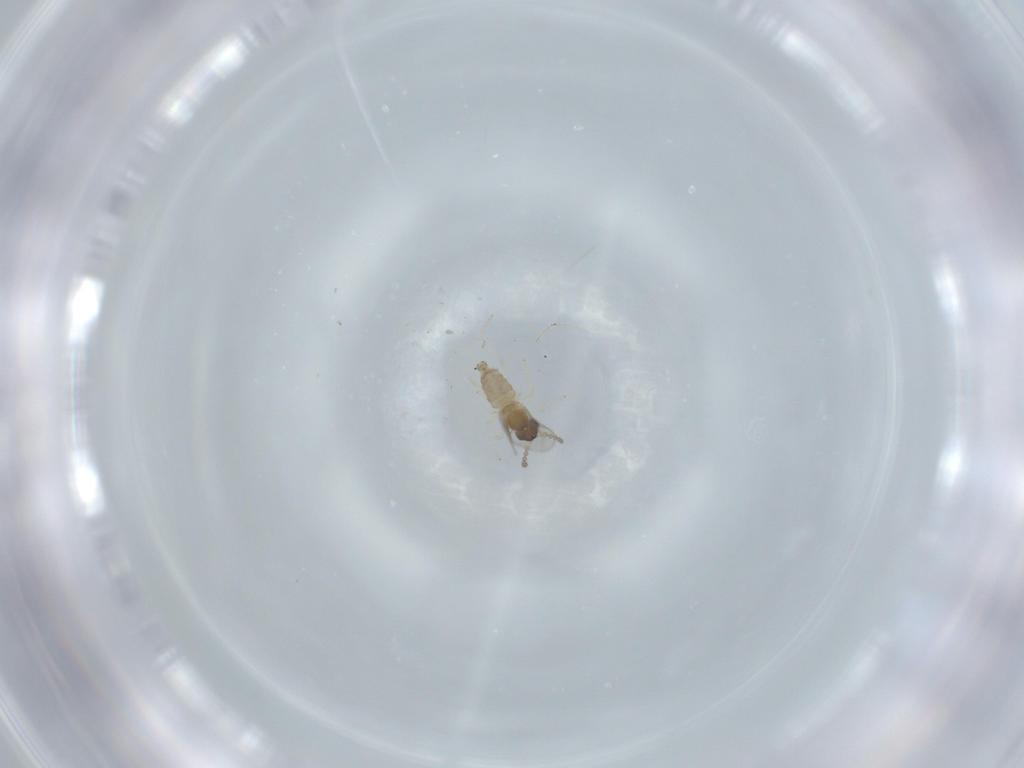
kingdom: Animalia
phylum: Arthropoda
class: Insecta
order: Diptera
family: Cecidomyiidae
